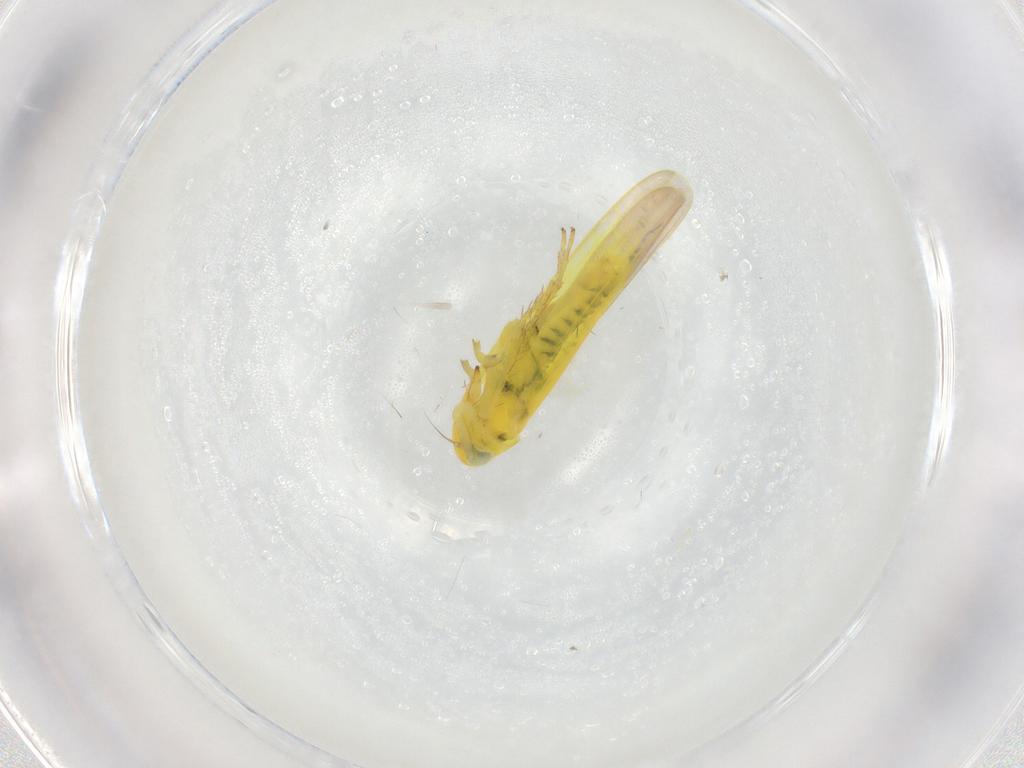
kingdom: Animalia
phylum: Arthropoda
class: Insecta
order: Hemiptera
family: Cicadellidae
